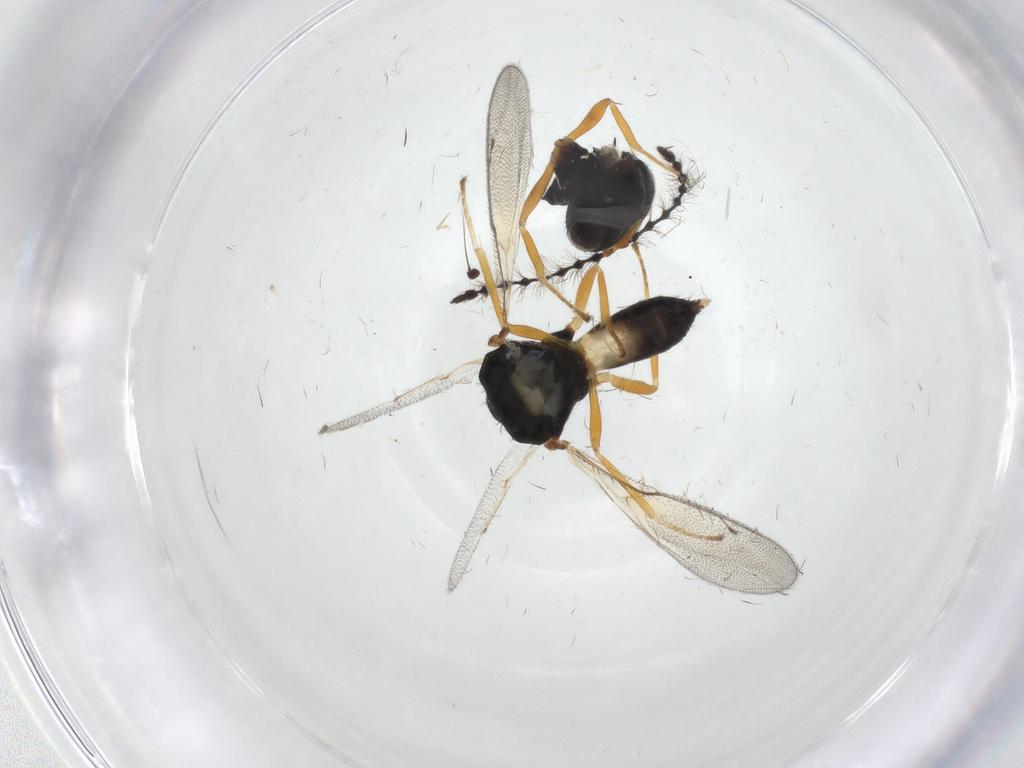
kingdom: Animalia
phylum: Arthropoda
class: Insecta
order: Hymenoptera
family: Pteromalidae
